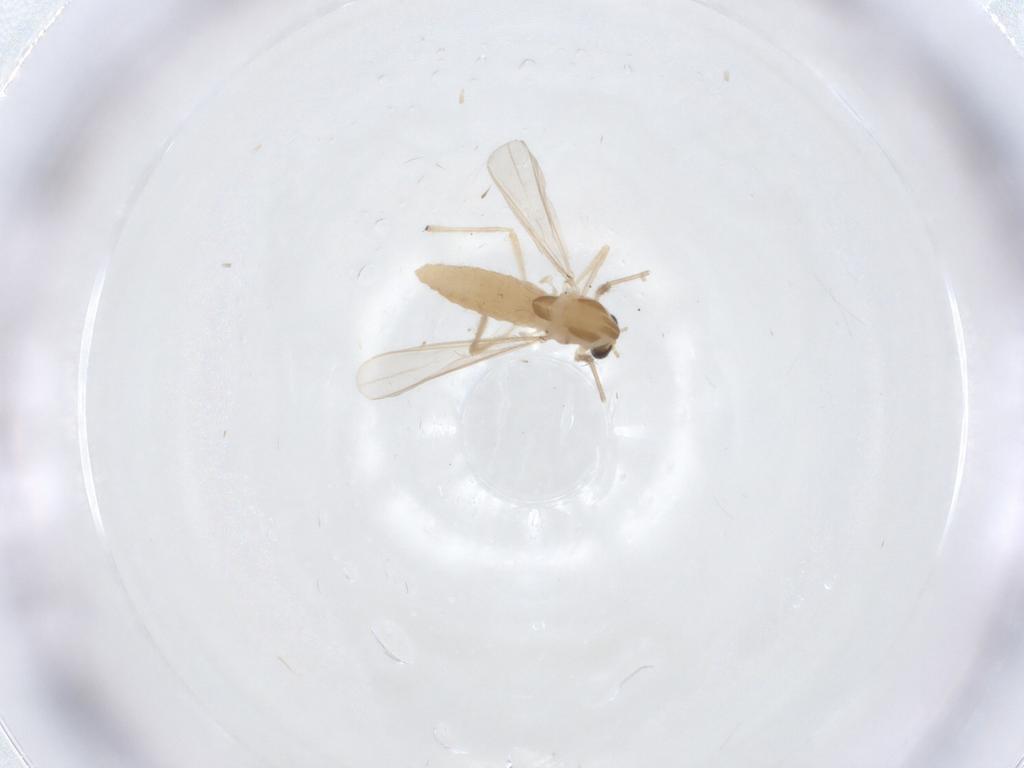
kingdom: Animalia
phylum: Arthropoda
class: Insecta
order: Diptera
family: Chironomidae
